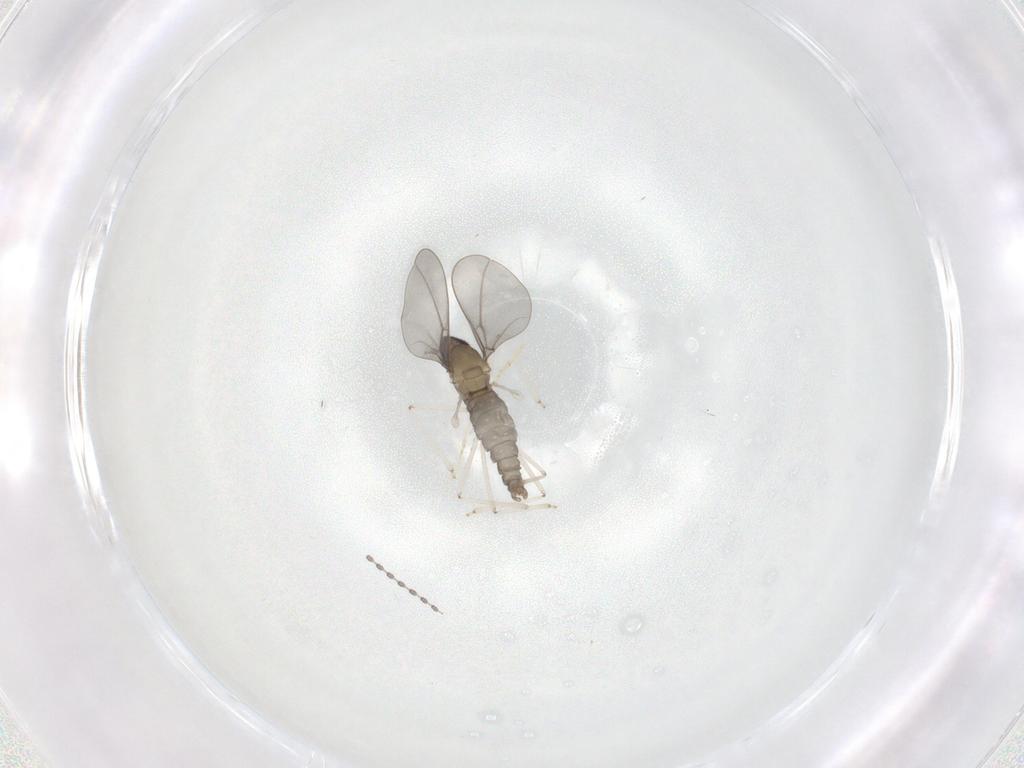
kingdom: Animalia
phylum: Arthropoda
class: Insecta
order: Diptera
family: Cecidomyiidae
